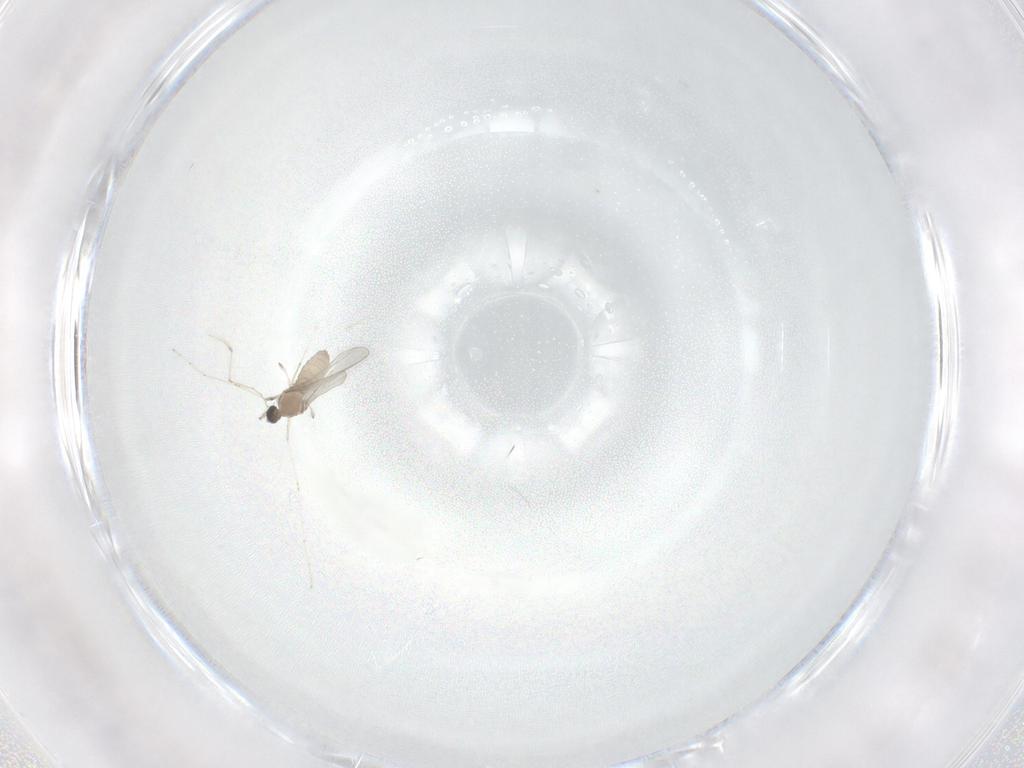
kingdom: Animalia
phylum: Arthropoda
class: Insecta
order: Diptera
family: Cecidomyiidae
